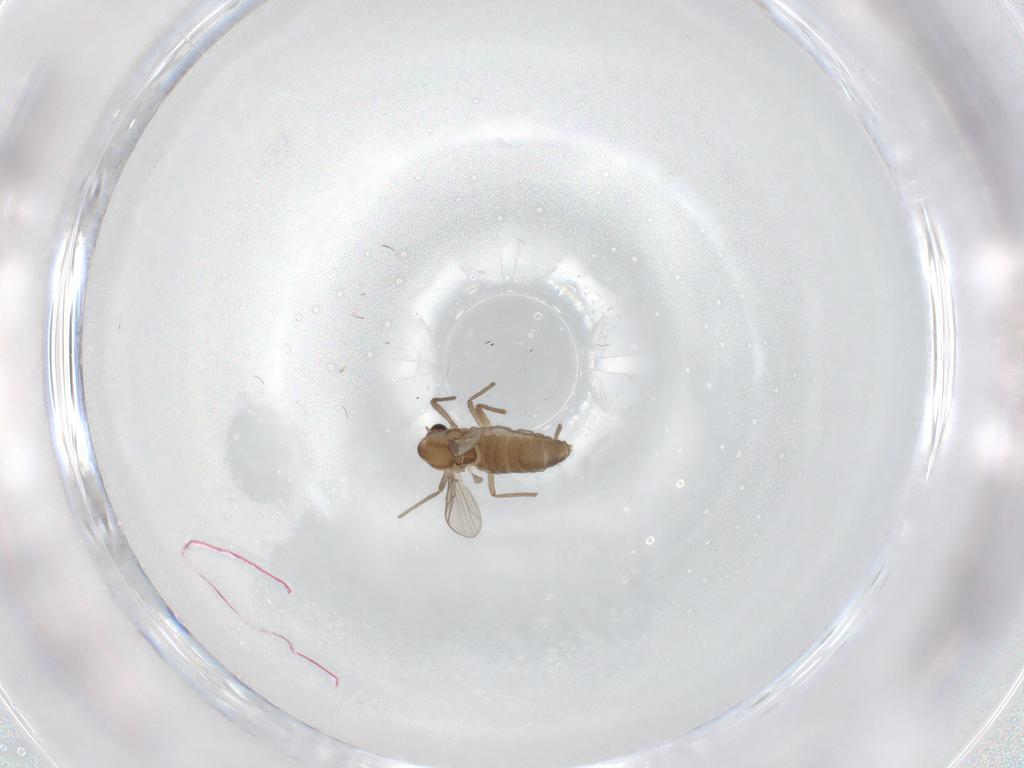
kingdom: Animalia
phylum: Arthropoda
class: Insecta
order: Diptera
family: Chironomidae
